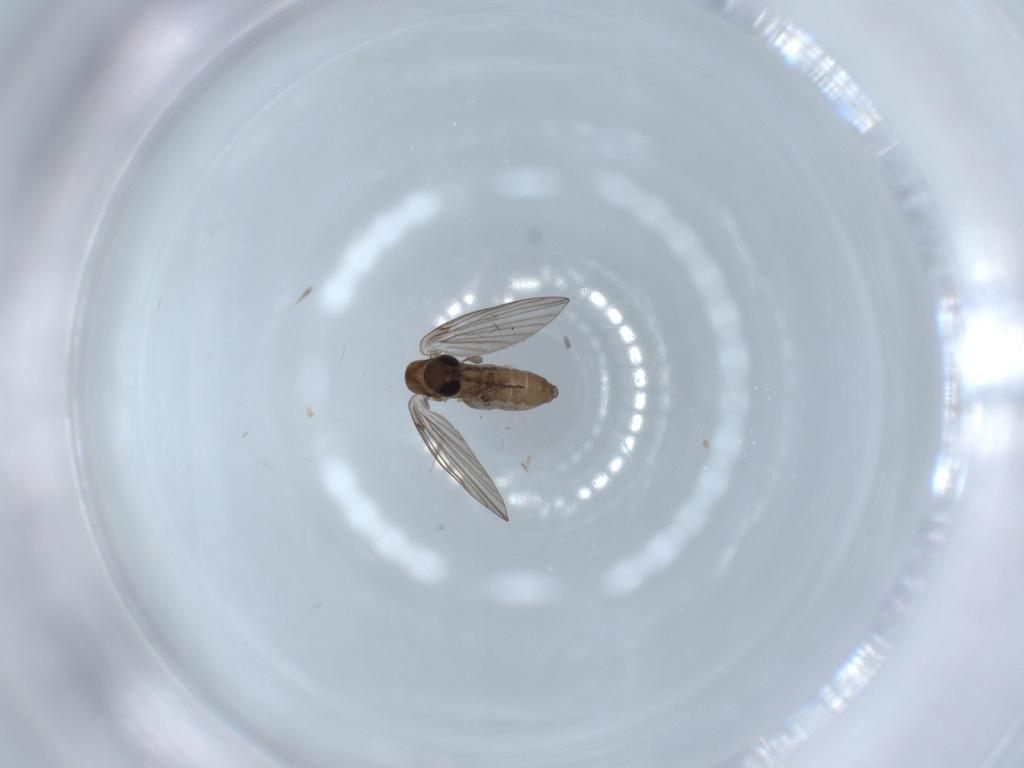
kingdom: Animalia
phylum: Arthropoda
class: Insecta
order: Diptera
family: Psychodidae
